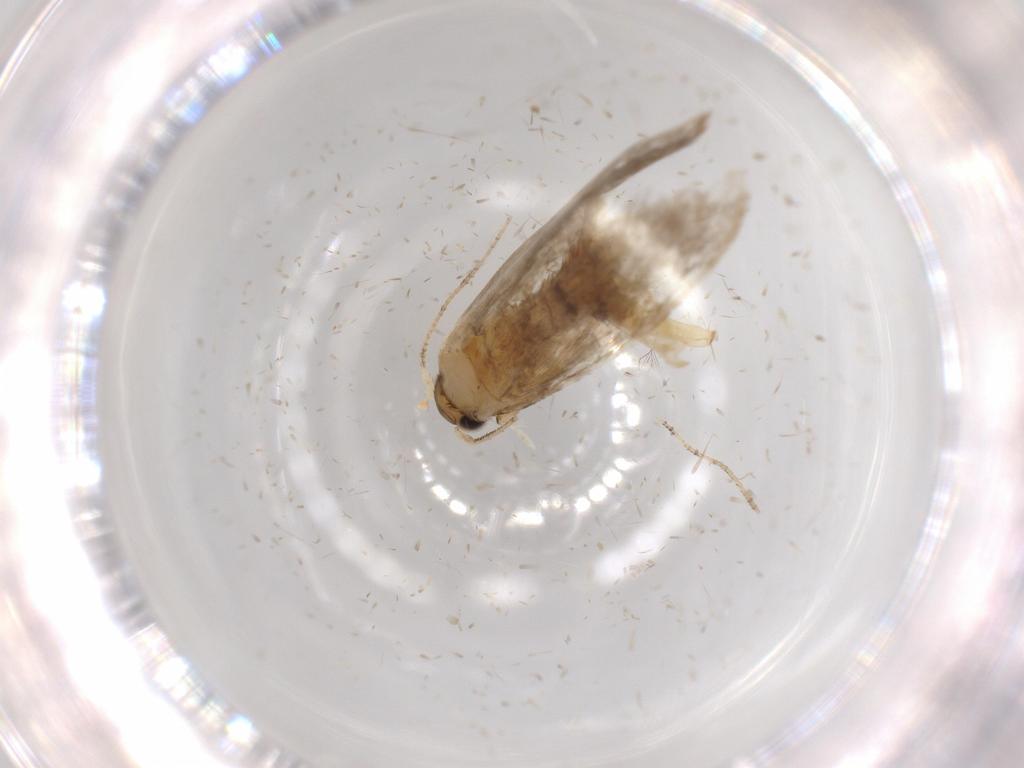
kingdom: Animalia
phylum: Arthropoda
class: Insecta
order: Lepidoptera
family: Tineidae
